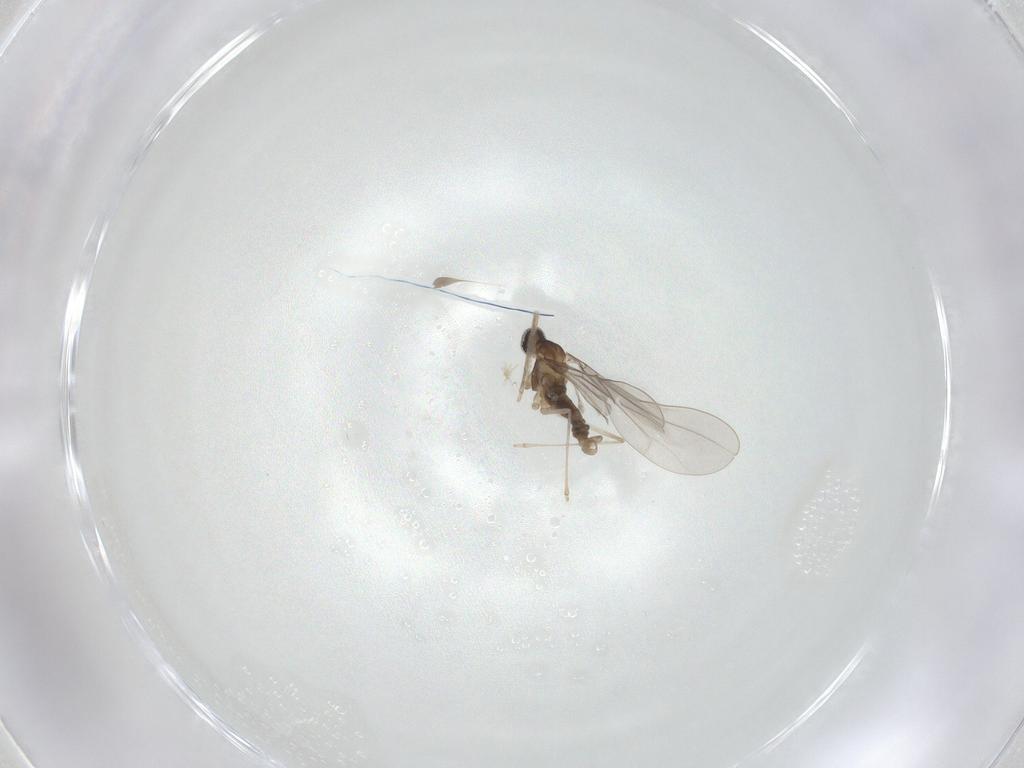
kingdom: Animalia
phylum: Arthropoda
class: Insecta
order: Diptera
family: Cecidomyiidae
